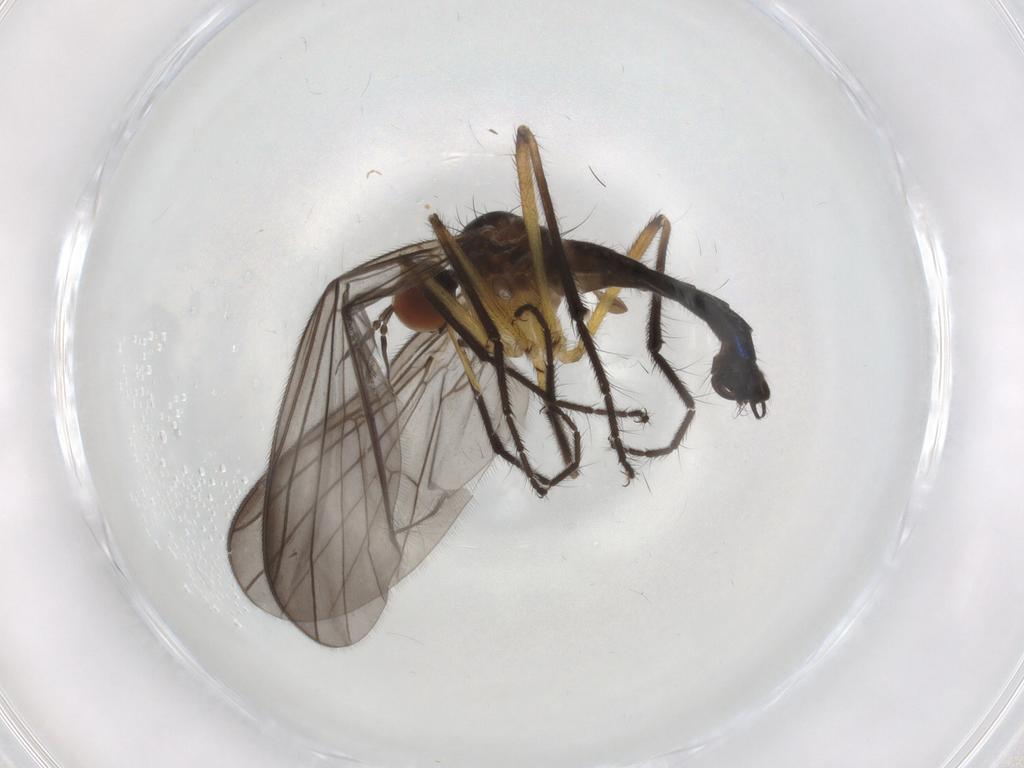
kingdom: Animalia
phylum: Arthropoda
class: Insecta
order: Diptera
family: Empididae
